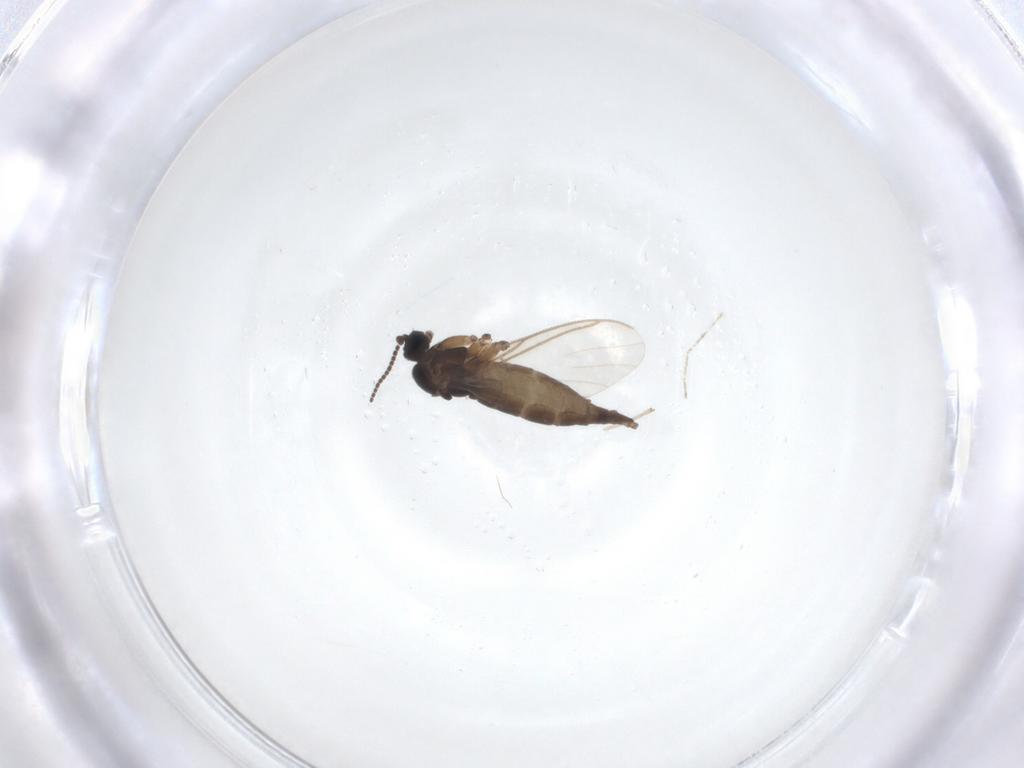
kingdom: Animalia
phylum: Arthropoda
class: Insecta
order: Diptera
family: Sciaridae
